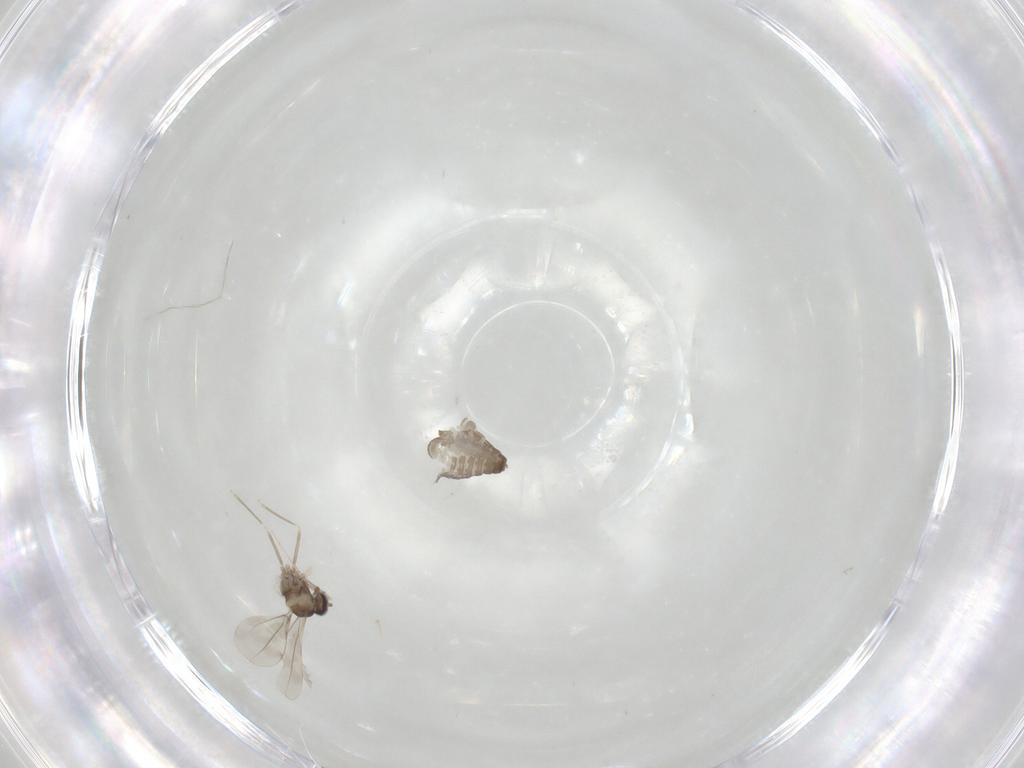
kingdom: Animalia
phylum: Arthropoda
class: Insecta
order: Diptera
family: Cecidomyiidae
